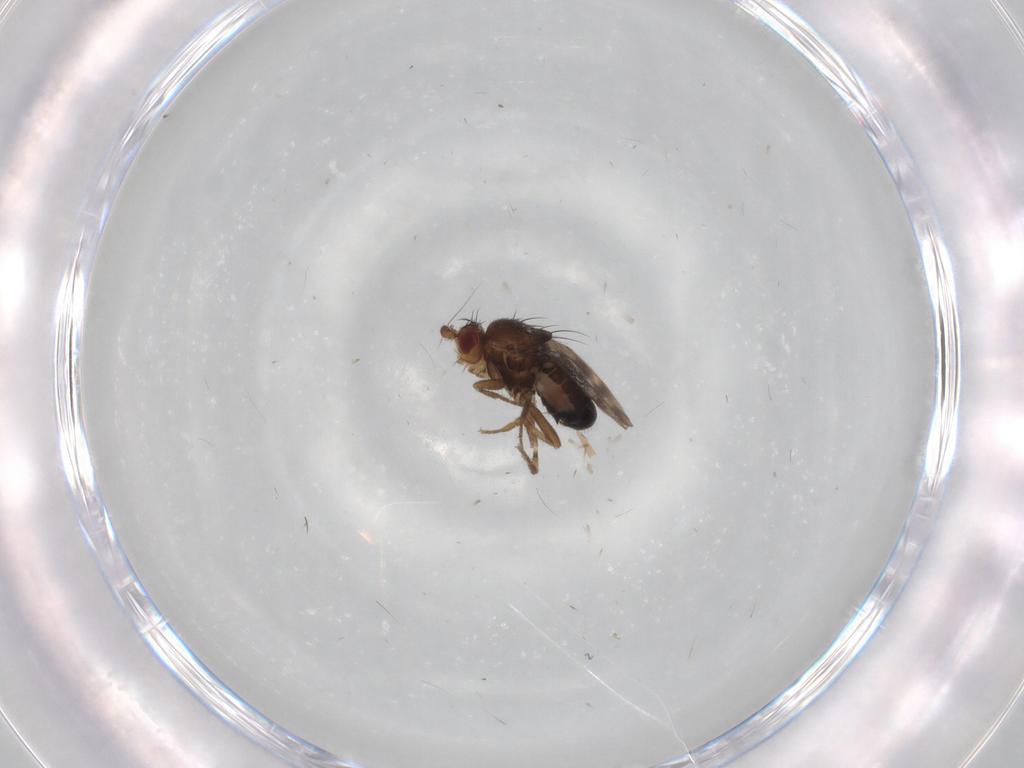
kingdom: Animalia
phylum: Arthropoda
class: Insecta
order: Diptera
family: Sphaeroceridae
